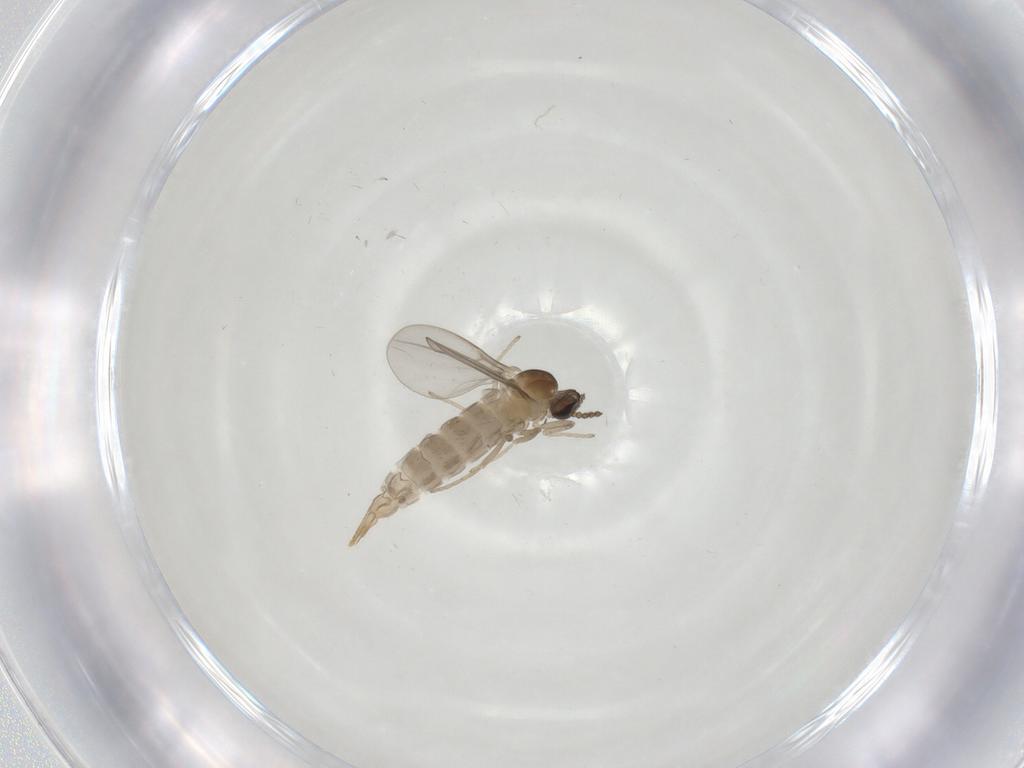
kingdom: Animalia
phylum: Arthropoda
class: Insecta
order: Diptera
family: Cecidomyiidae
